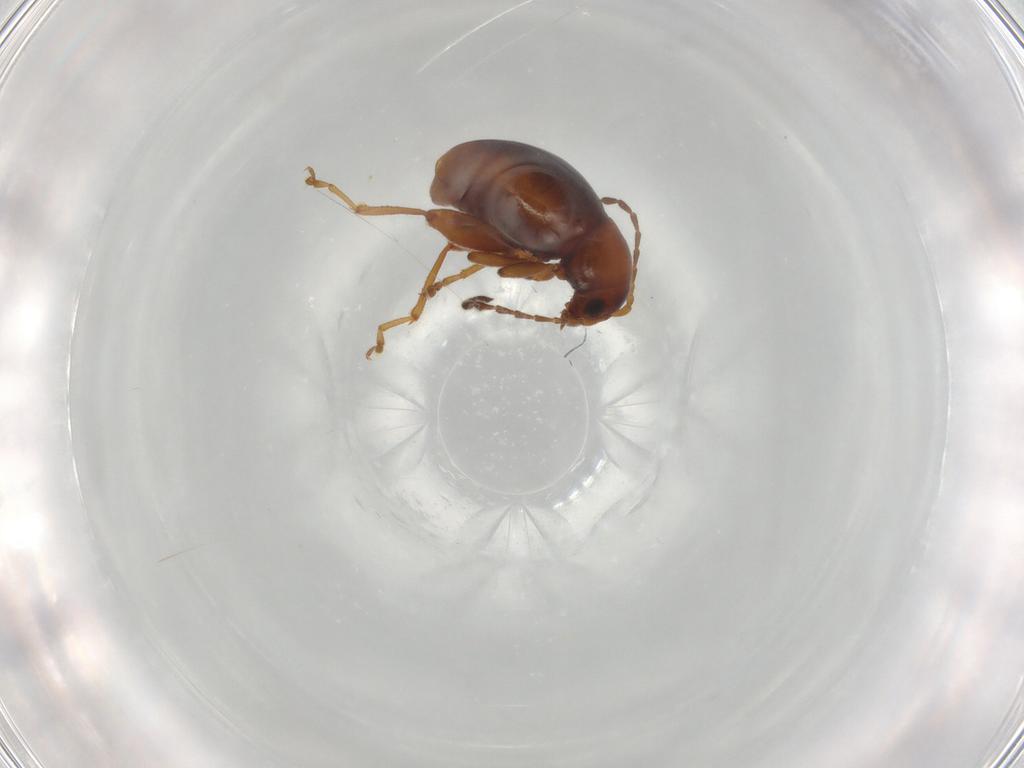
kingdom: Animalia
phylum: Arthropoda
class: Insecta
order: Coleoptera
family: Chrysomelidae
